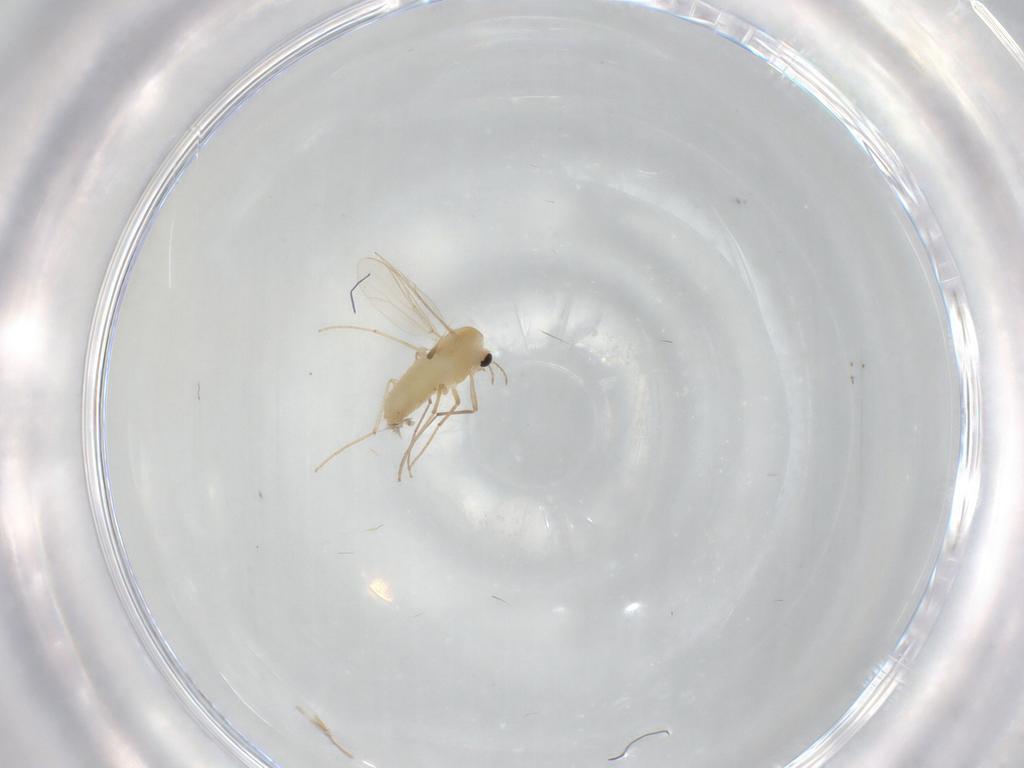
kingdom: Animalia
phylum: Arthropoda
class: Insecta
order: Diptera
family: Chironomidae
